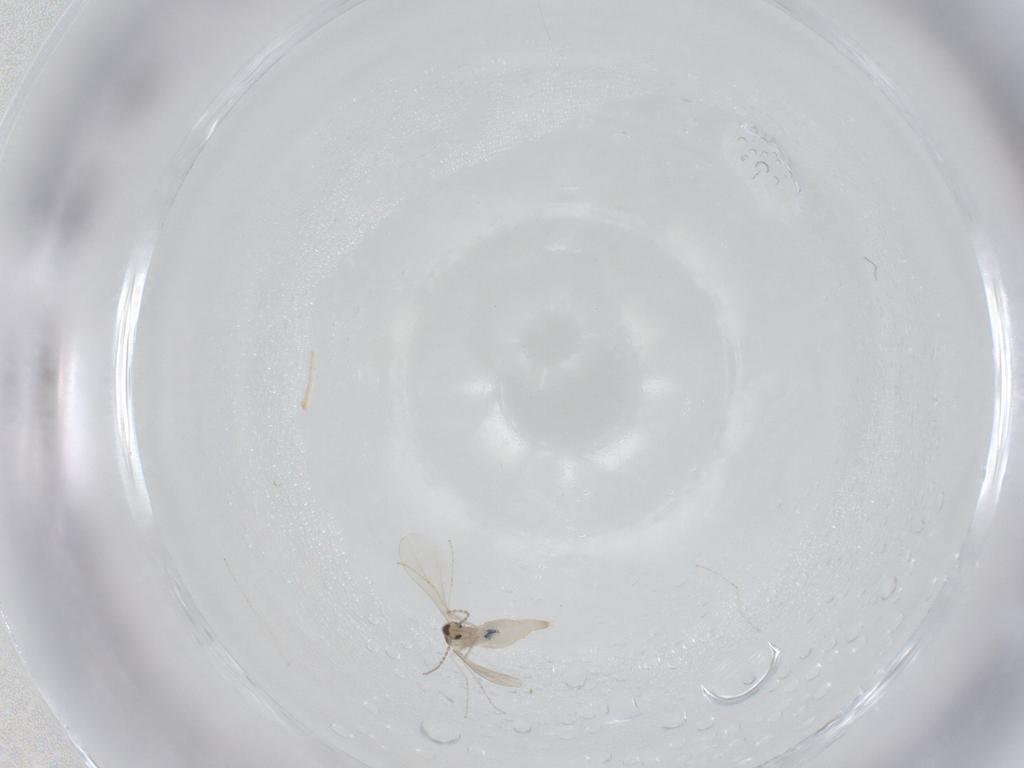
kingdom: Animalia
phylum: Arthropoda
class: Insecta
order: Diptera
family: Cecidomyiidae
